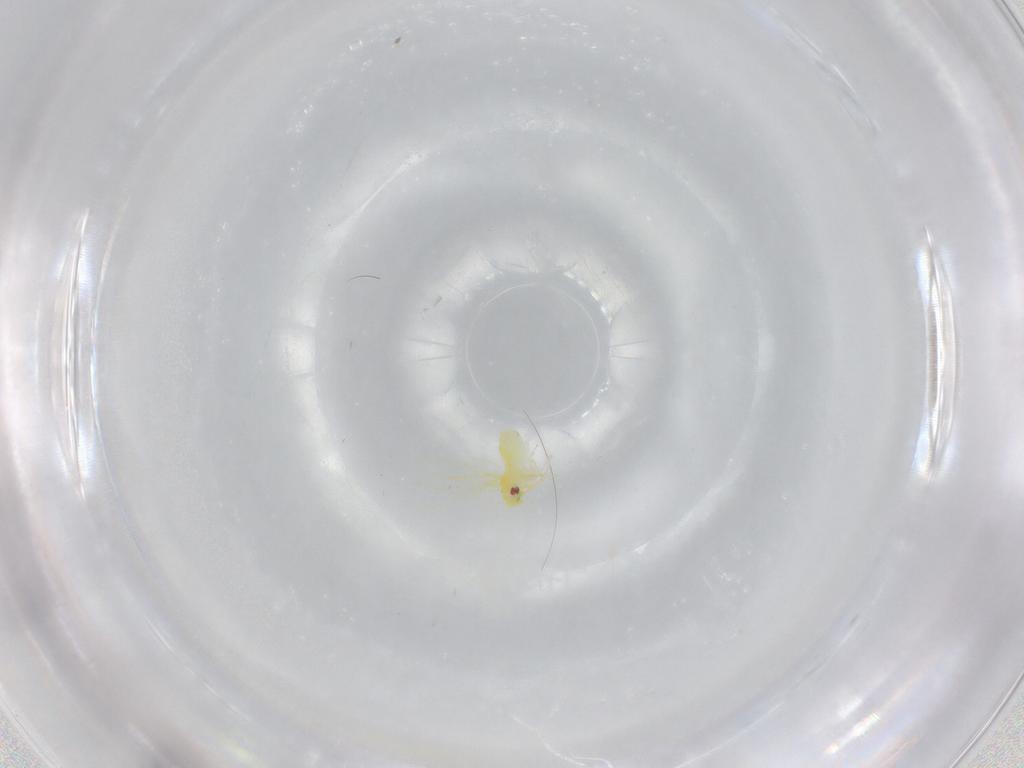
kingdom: Animalia
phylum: Arthropoda
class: Insecta
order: Hemiptera
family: Aleyrodidae
